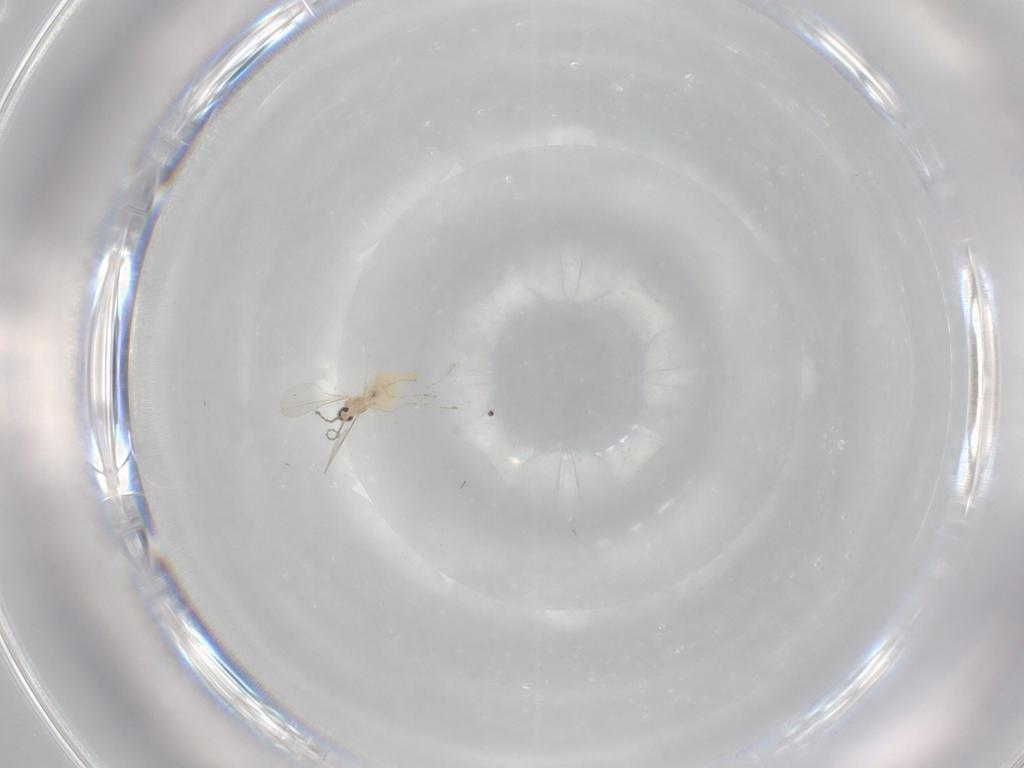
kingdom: Animalia
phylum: Arthropoda
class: Insecta
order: Diptera
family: Cecidomyiidae
